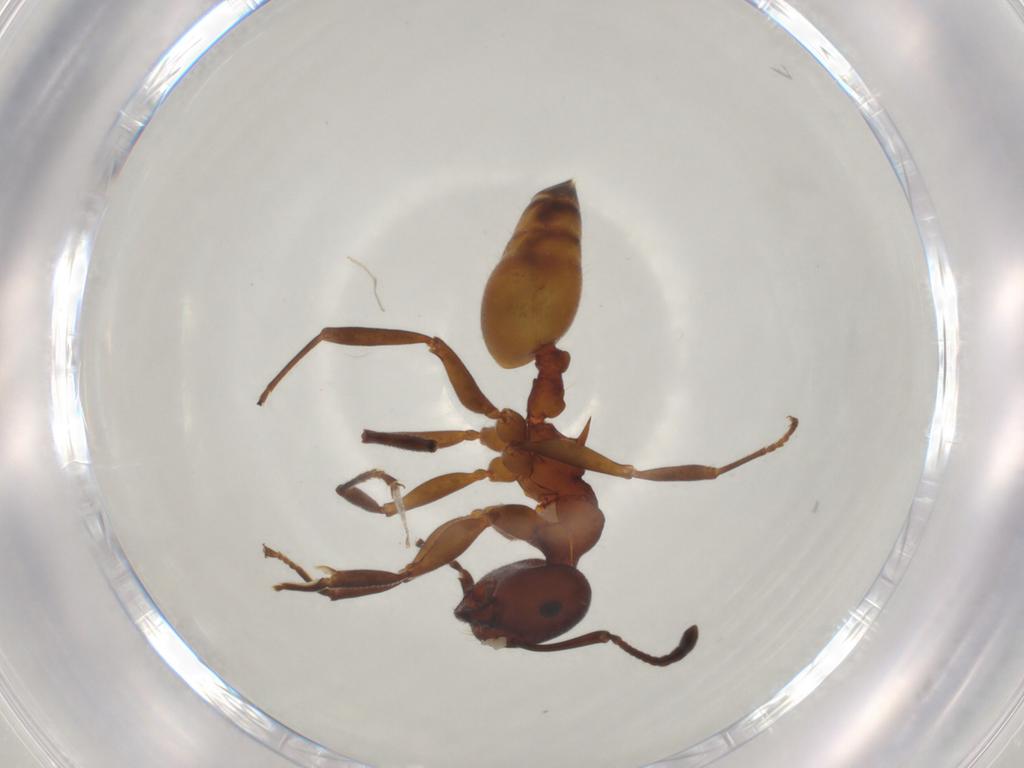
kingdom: Animalia
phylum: Arthropoda
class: Insecta
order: Hymenoptera
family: Formicidae
